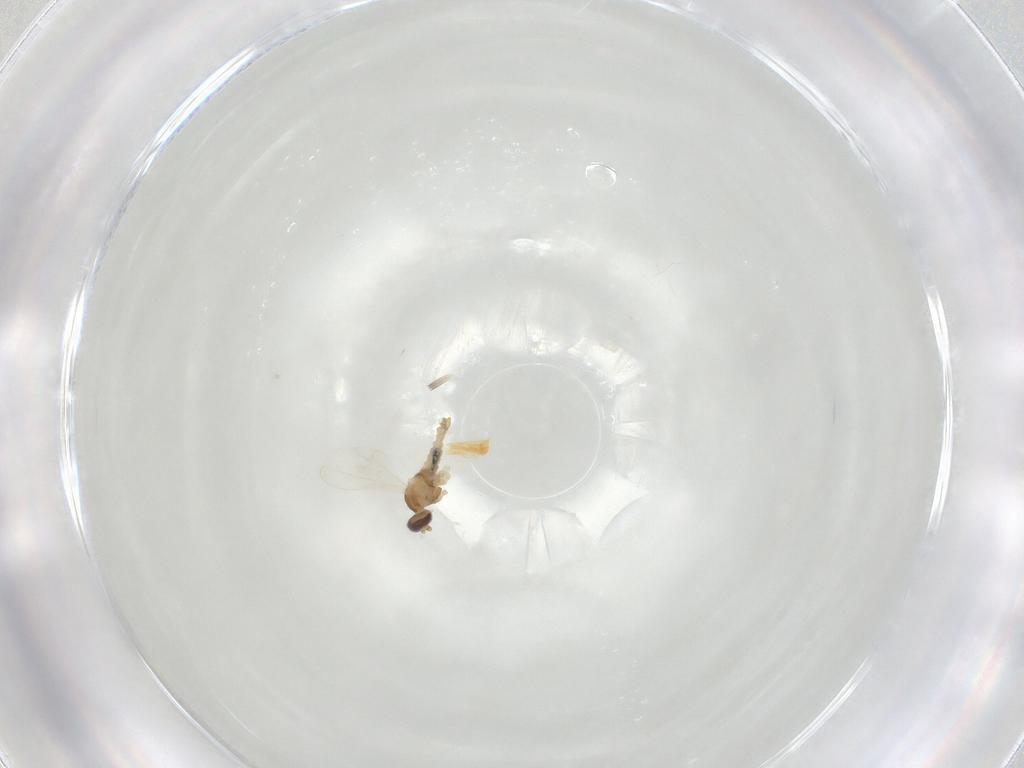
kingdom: Animalia
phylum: Arthropoda
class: Insecta
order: Diptera
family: Cecidomyiidae
